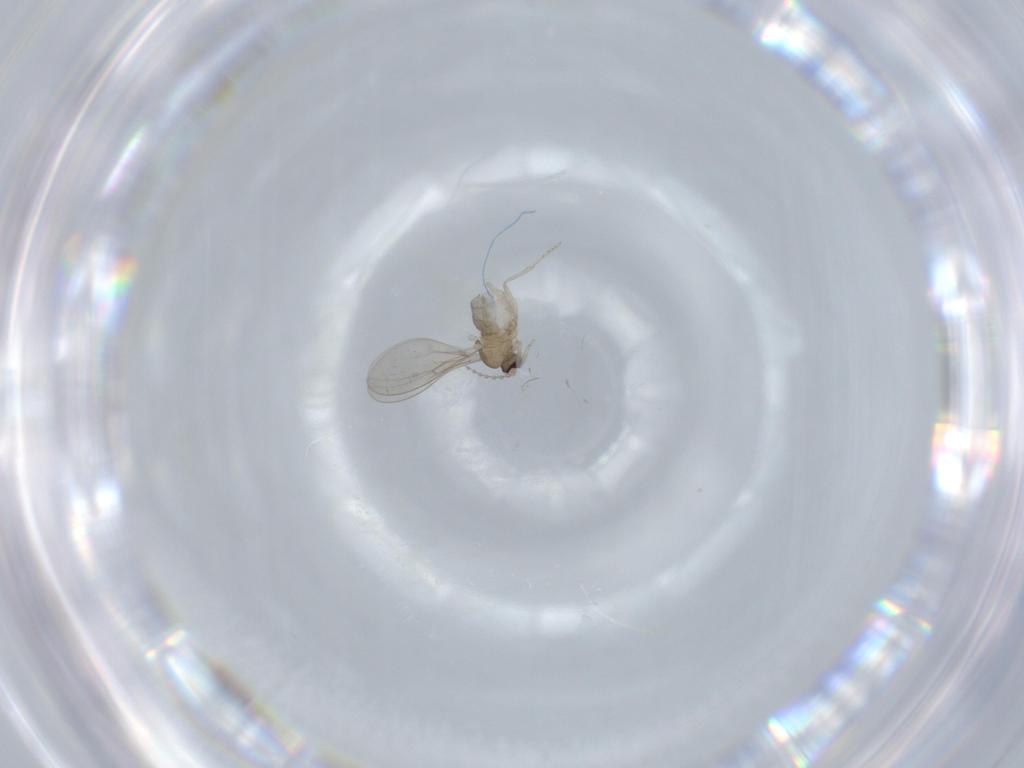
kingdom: Animalia
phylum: Arthropoda
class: Insecta
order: Diptera
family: Cecidomyiidae
